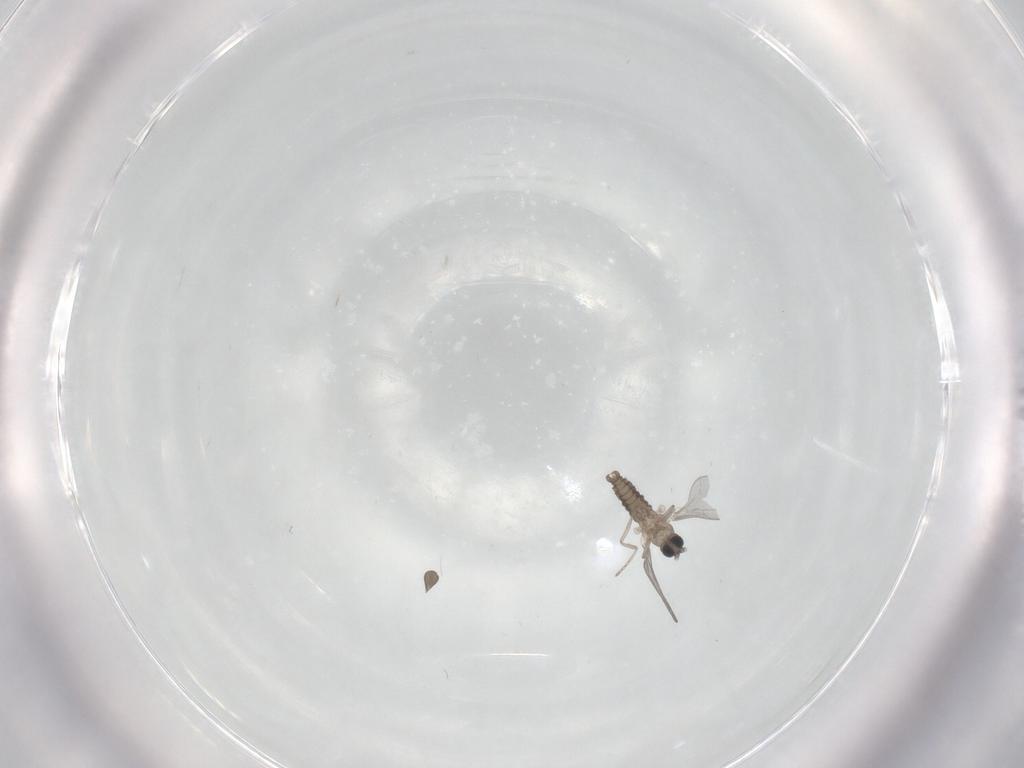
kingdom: Animalia
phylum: Arthropoda
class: Insecta
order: Diptera
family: Sciaridae
